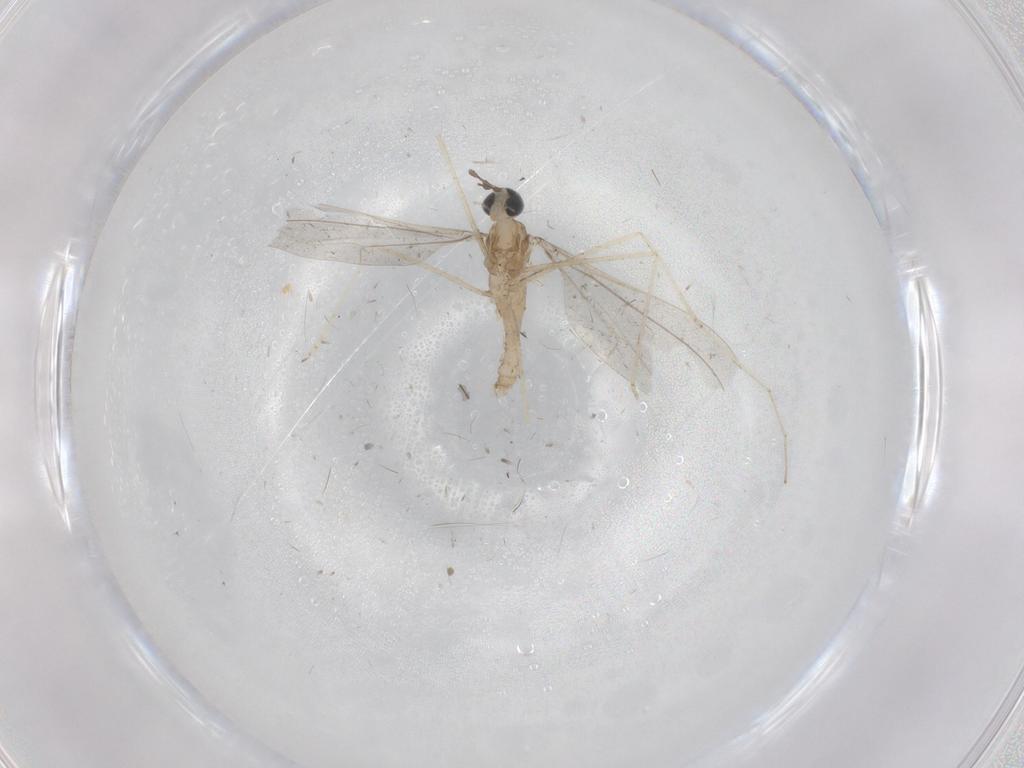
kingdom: Animalia
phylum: Arthropoda
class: Insecta
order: Diptera
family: Cecidomyiidae
